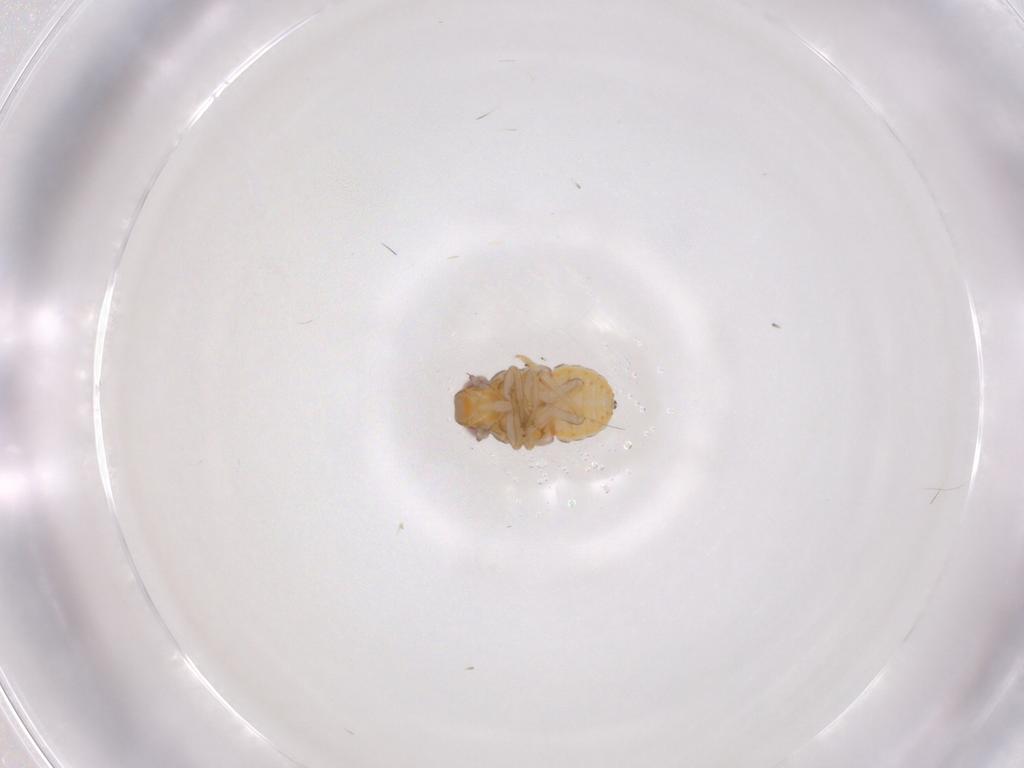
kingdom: Animalia
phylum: Arthropoda
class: Insecta
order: Hemiptera
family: Issidae
